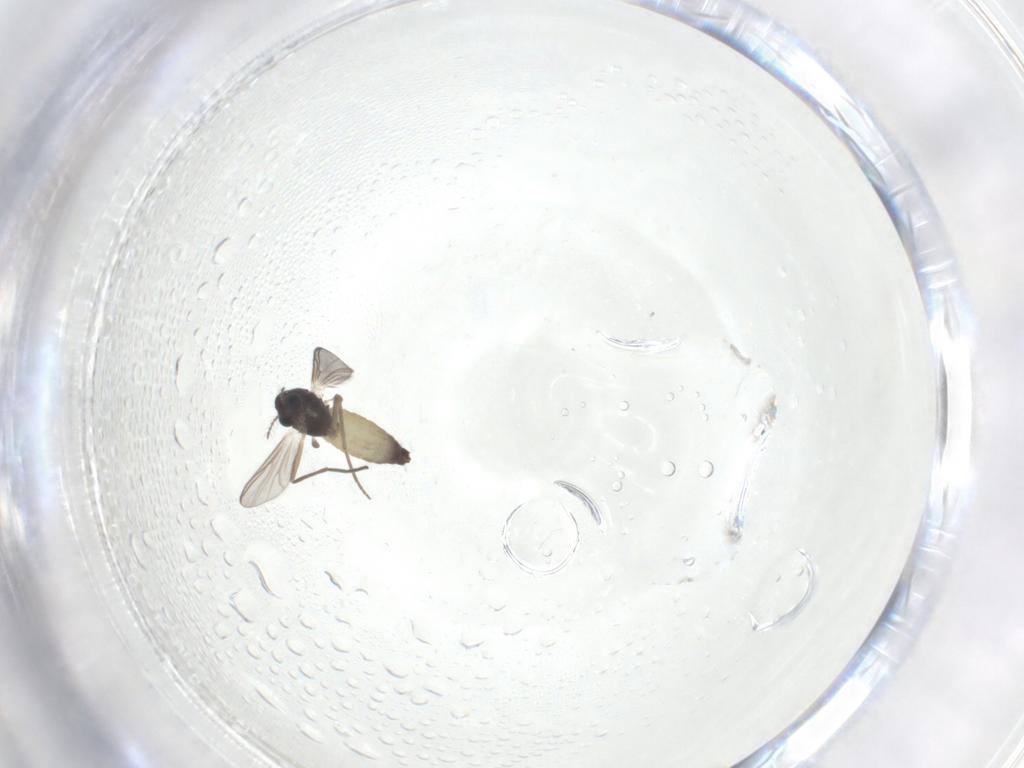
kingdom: Animalia
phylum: Arthropoda
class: Insecta
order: Diptera
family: Chironomidae
